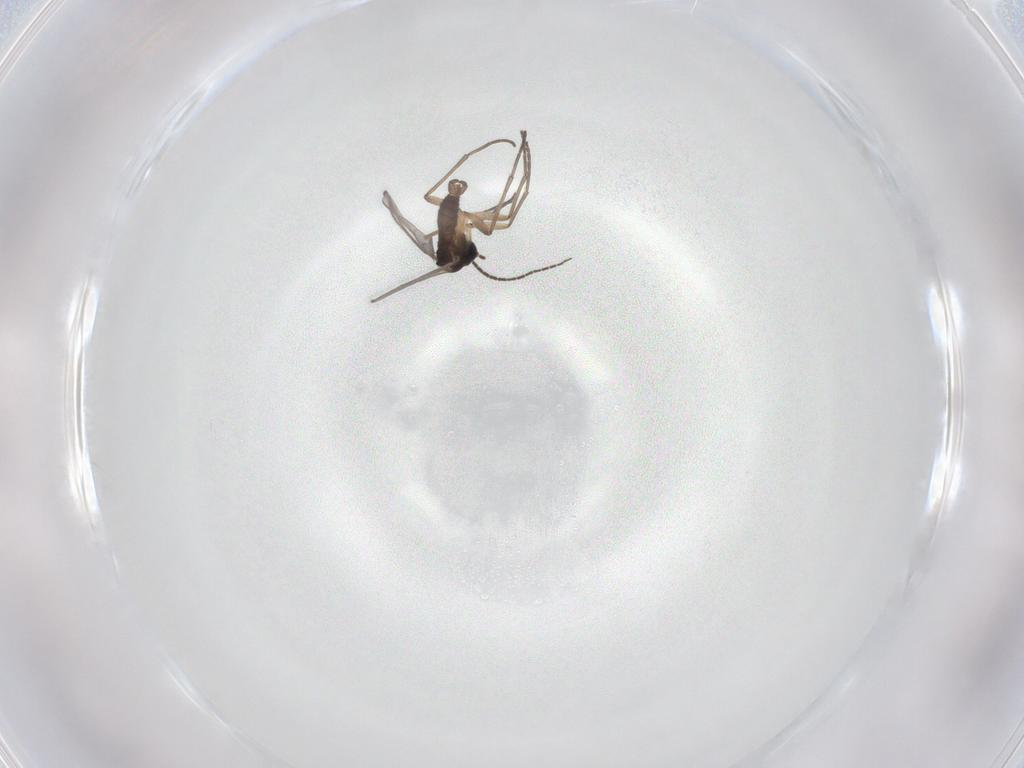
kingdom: Animalia
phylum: Arthropoda
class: Insecta
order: Diptera
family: Sciaridae
